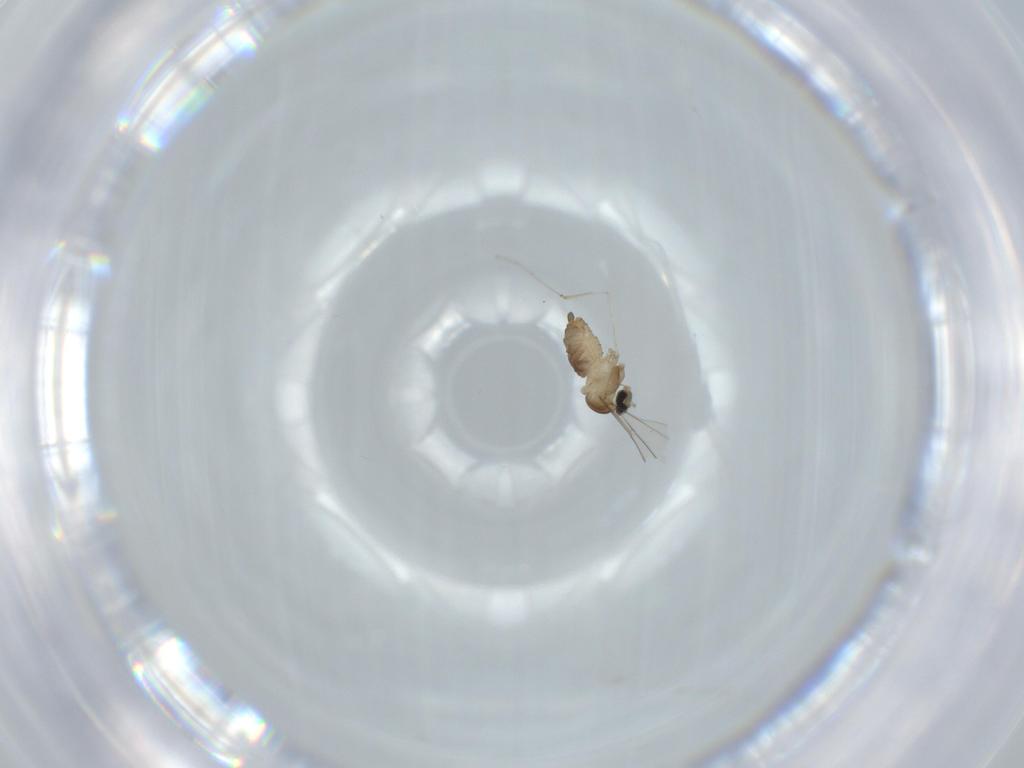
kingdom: Animalia
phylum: Arthropoda
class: Insecta
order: Diptera
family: Cecidomyiidae
